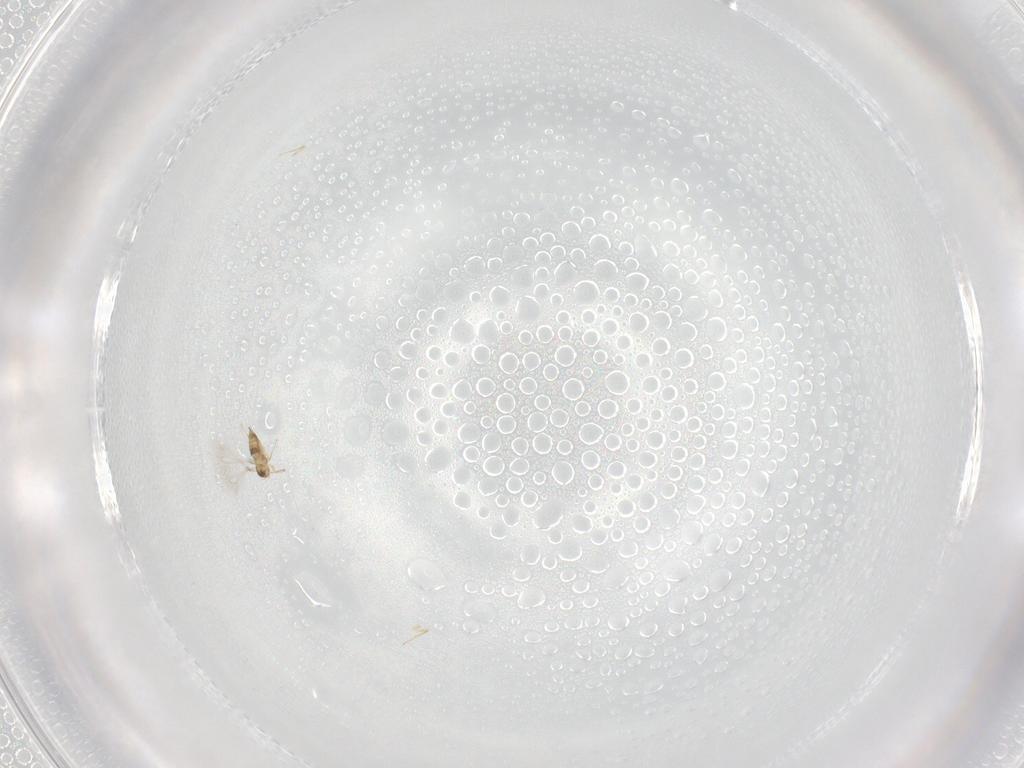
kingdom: Animalia
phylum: Arthropoda
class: Insecta
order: Hymenoptera
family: Mymaridae
